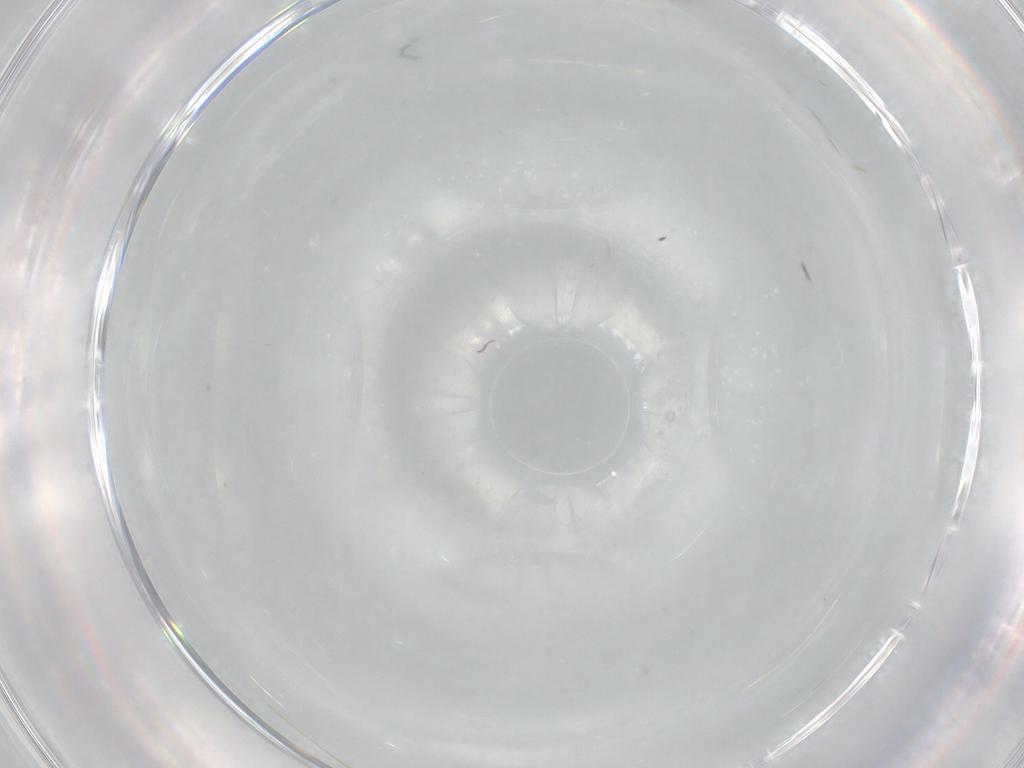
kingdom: Animalia
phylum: Arthropoda
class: Insecta
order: Diptera
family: Cecidomyiidae
